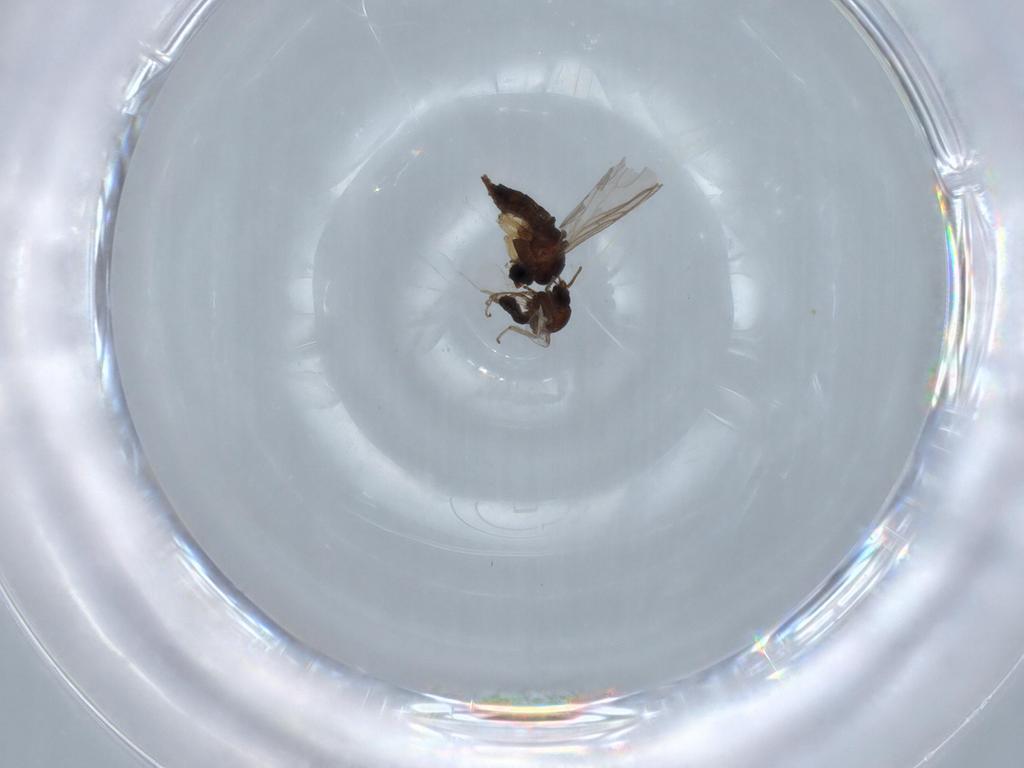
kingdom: Animalia
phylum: Arthropoda
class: Insecta
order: Diptera
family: Sciaridae
